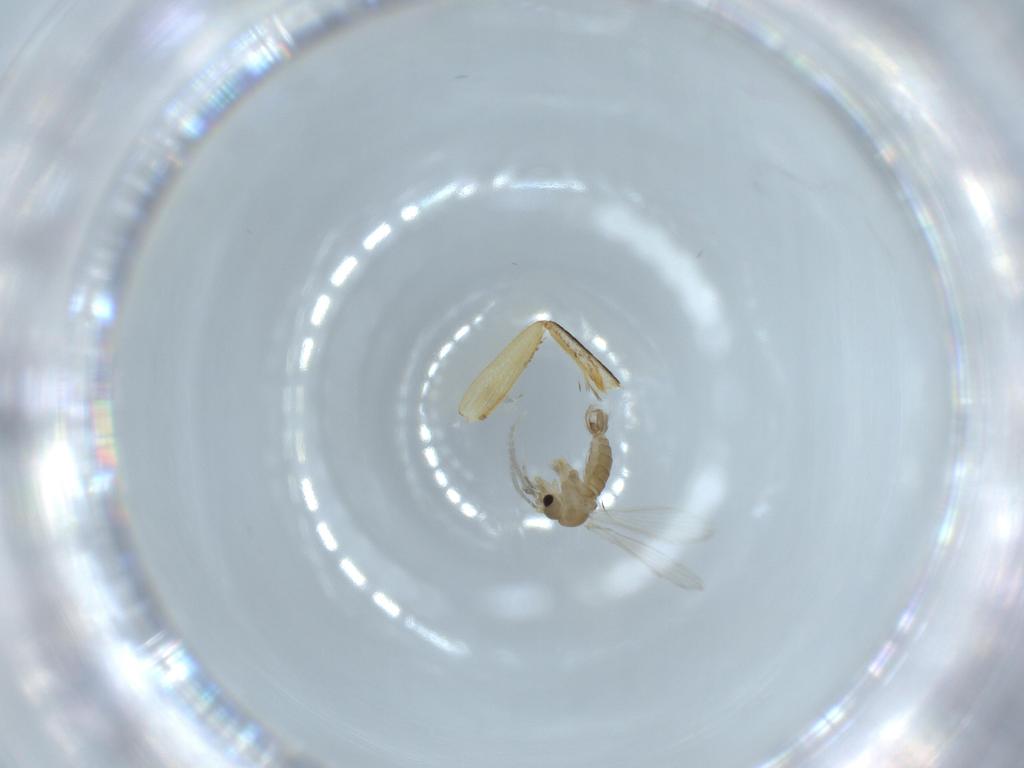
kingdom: Animalia
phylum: Arthropoda
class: Insecta
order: Diptera
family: Psychodidae
